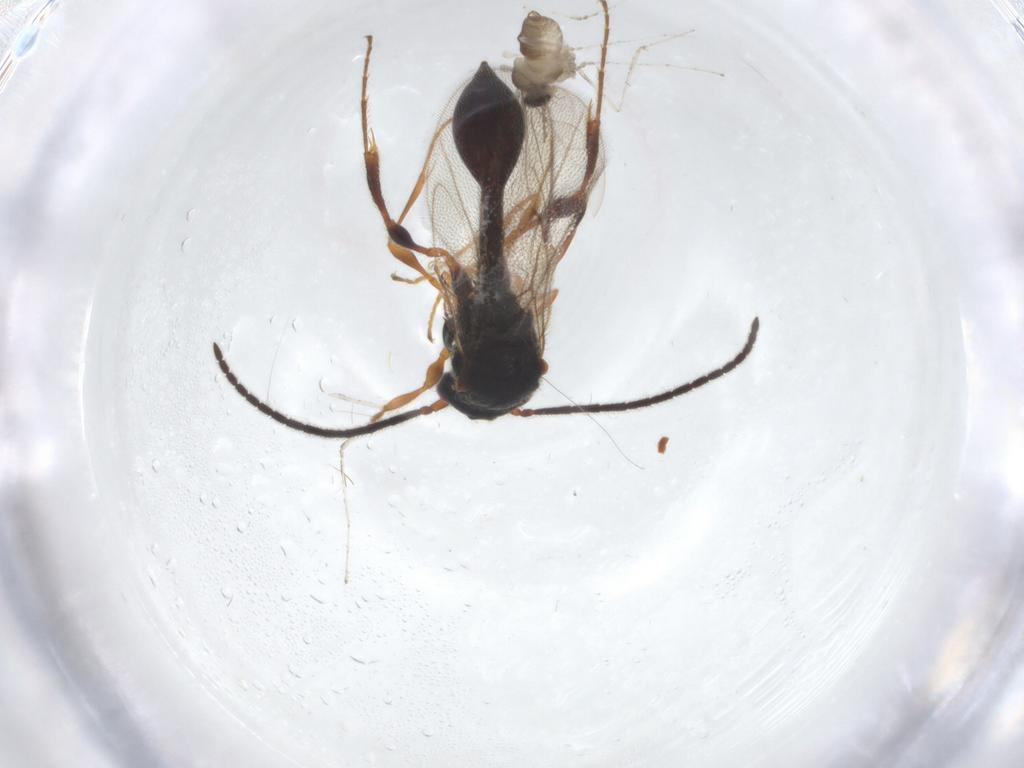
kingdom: Animalia
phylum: Arthropoda
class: Insecta
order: Diptera
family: Cecidomyiidae
